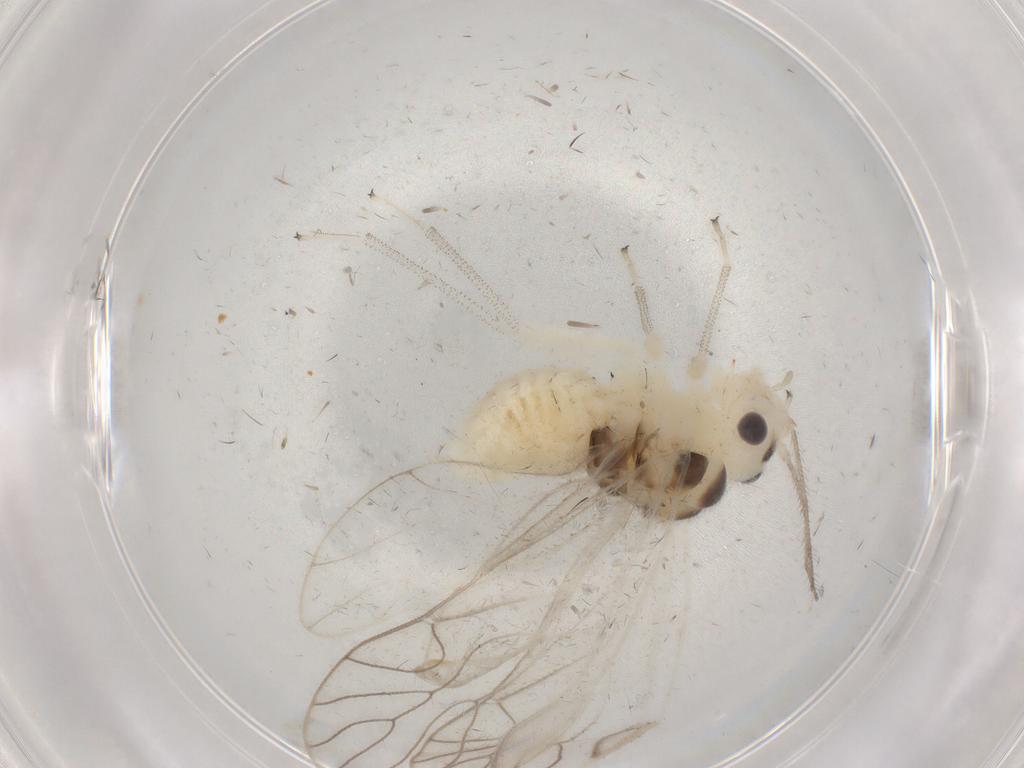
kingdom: Animalia
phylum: Arthropoda
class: Insecta
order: Psocodea
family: Amphipsocidae
